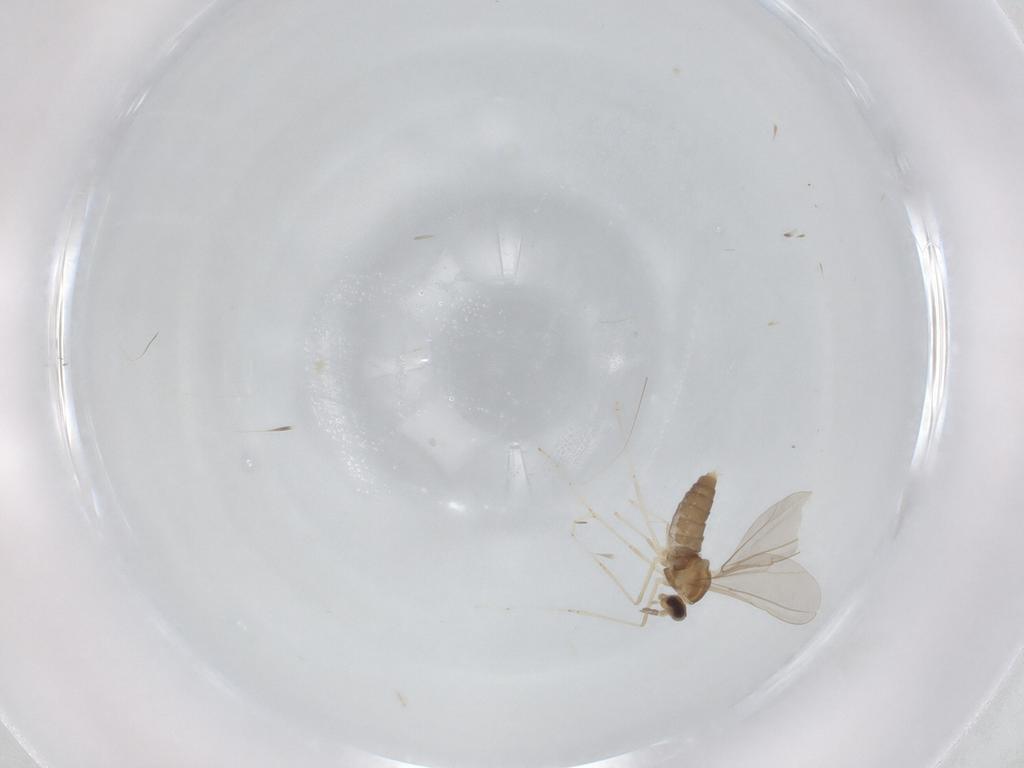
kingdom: Animalia
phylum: Arthropoda
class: Insecta
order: Diptera
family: Cecidomyiidae
